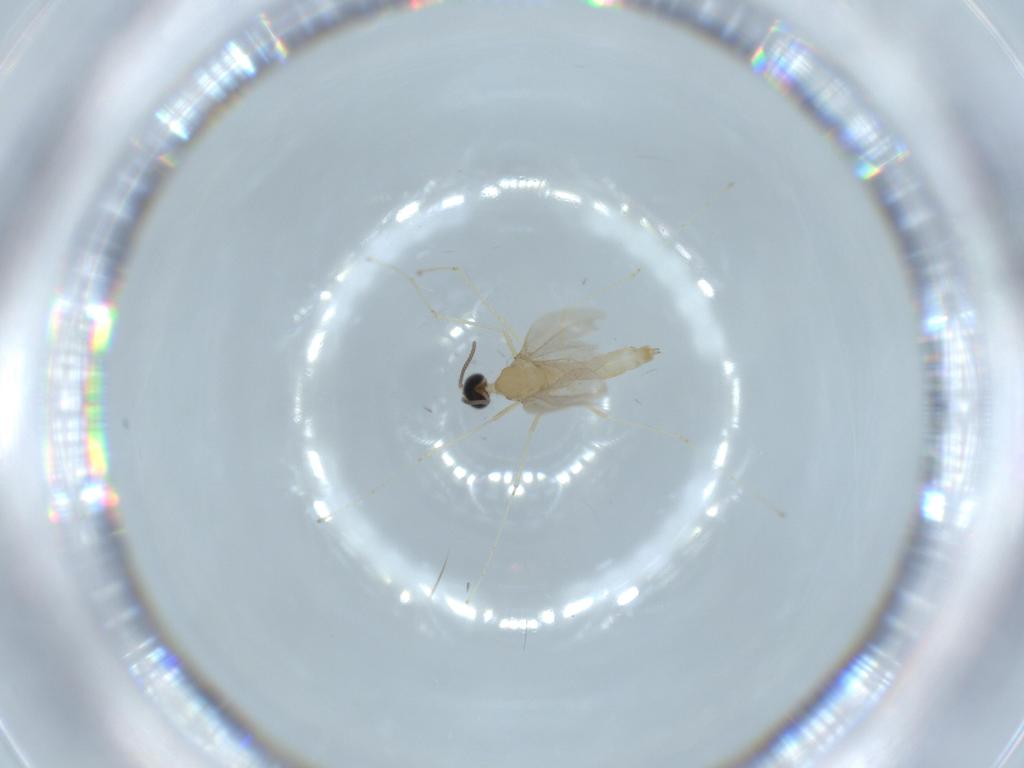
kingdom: Animalia
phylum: Arthropoda
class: Insecta
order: Diptera
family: Cecidomyiidae
